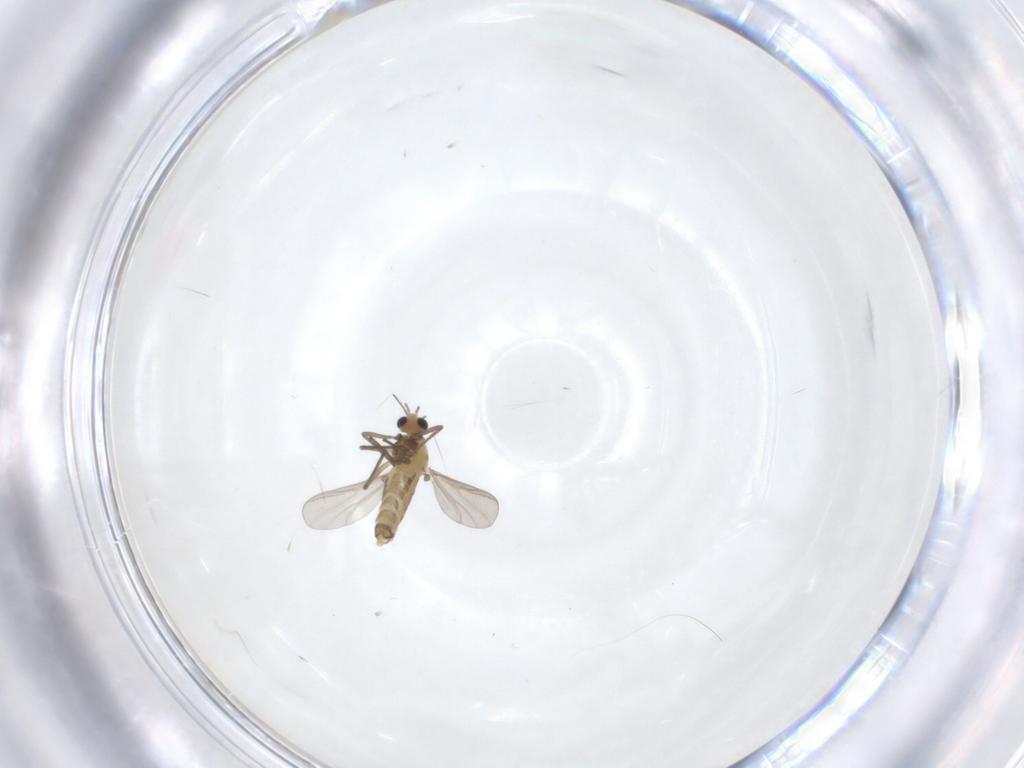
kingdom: Animalia
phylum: Arthropoda
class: Insecta
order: Diptera
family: Chironomidae
